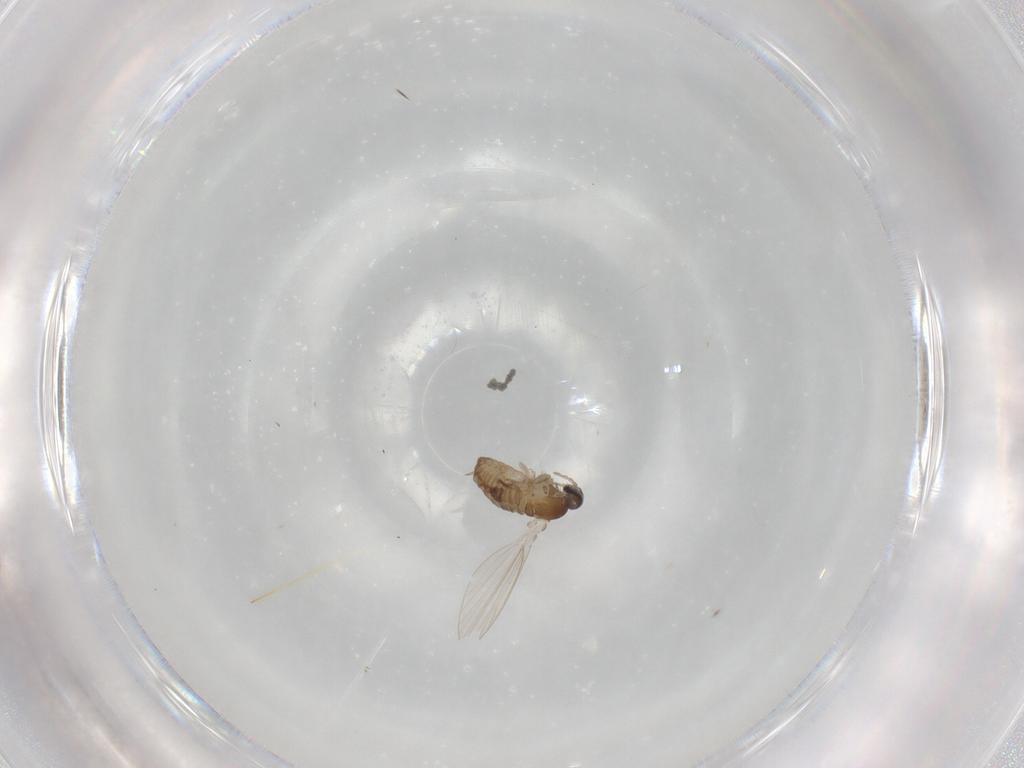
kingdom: Animalia
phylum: Arthropoda
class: Insecta
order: Diptera
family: Psychodidae
